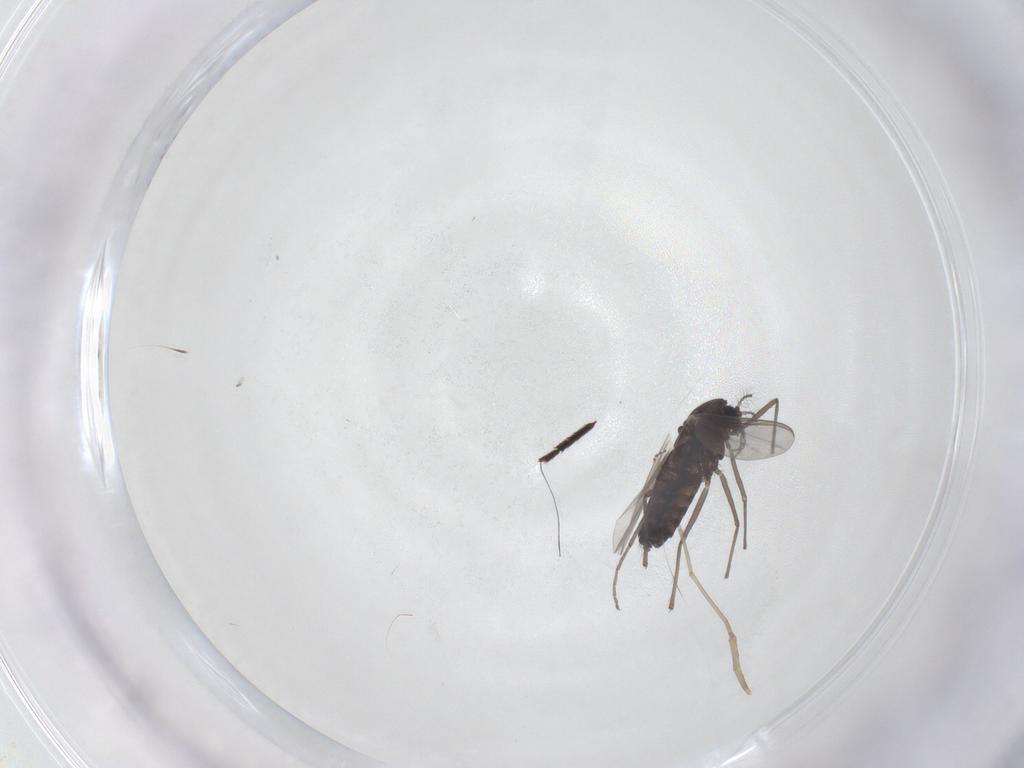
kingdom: Animalia
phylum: Arthropoda
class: Insecta
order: Diptera
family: Chironomidae
